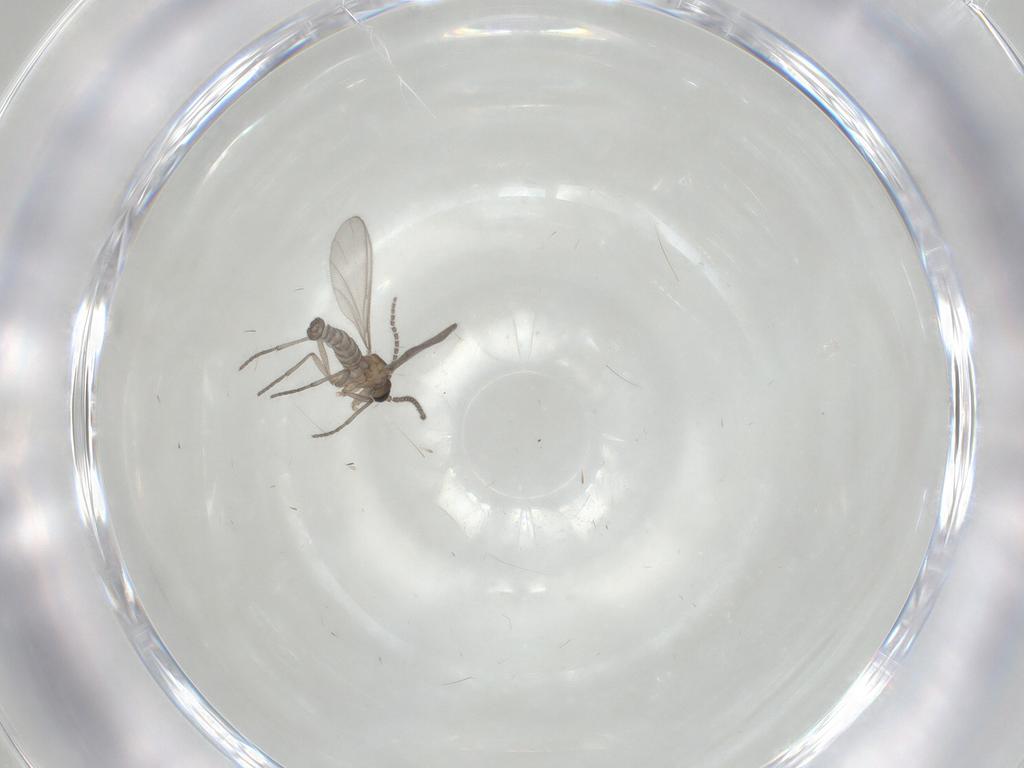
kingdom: Animalia
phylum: Arthropoda
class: Insecta
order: Diptera
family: Sciaridae
